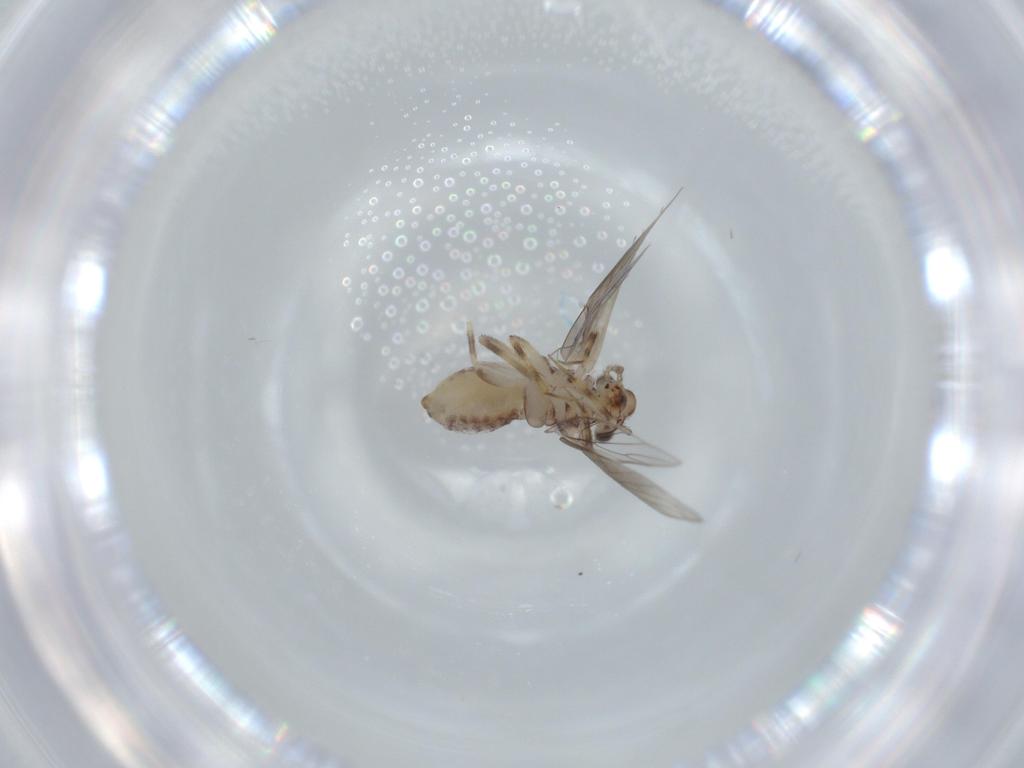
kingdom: Animalia
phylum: Arthropoda
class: Insecta
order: Psocodea
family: Lepidopsocidae
